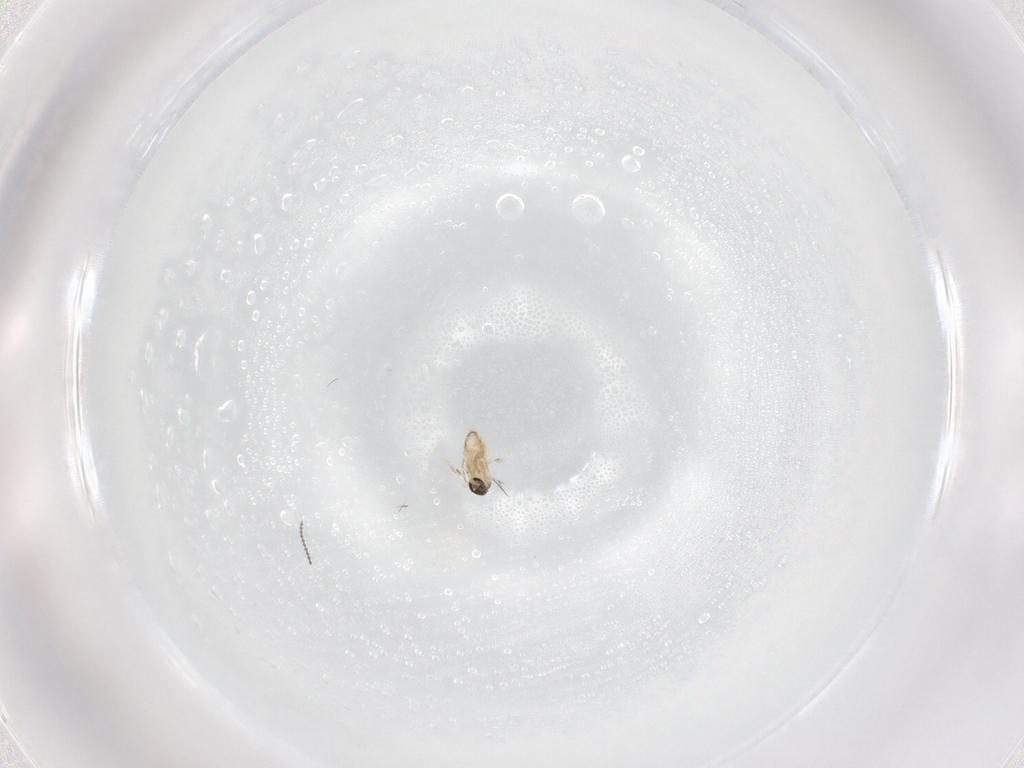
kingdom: Animalia
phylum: Arthropoda
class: Insecta
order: Diptera
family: Cecidomyiidae
